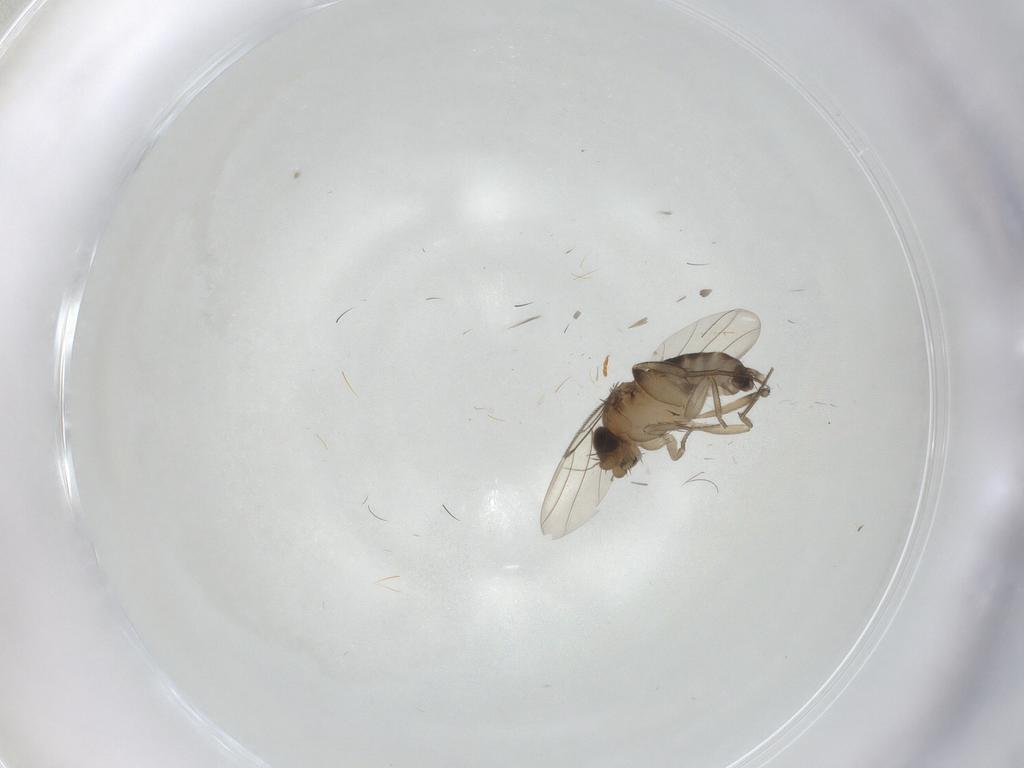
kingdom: Animalia
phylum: Arthropoda
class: Insecta
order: Diptera
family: Phoridae
